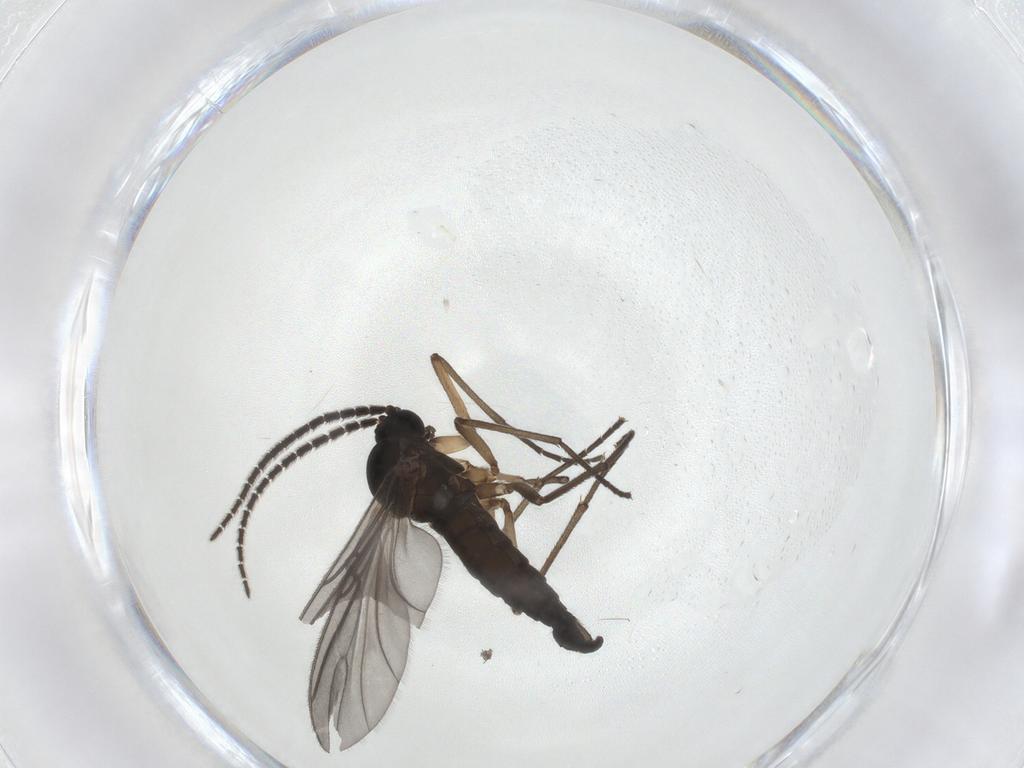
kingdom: Animalia
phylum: Arthropoda
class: Insecta
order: Diptera
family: Sciaridae
